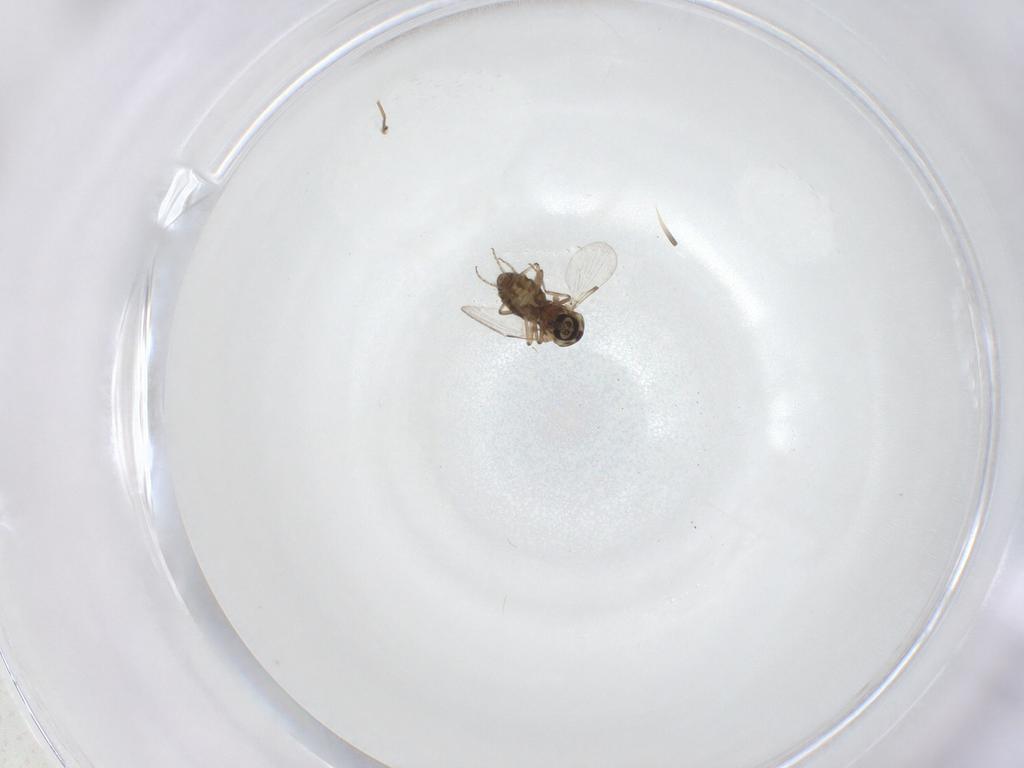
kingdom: Animalia
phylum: Arthropoda
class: Insecta
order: Diptera
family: Ceratopogonidae
